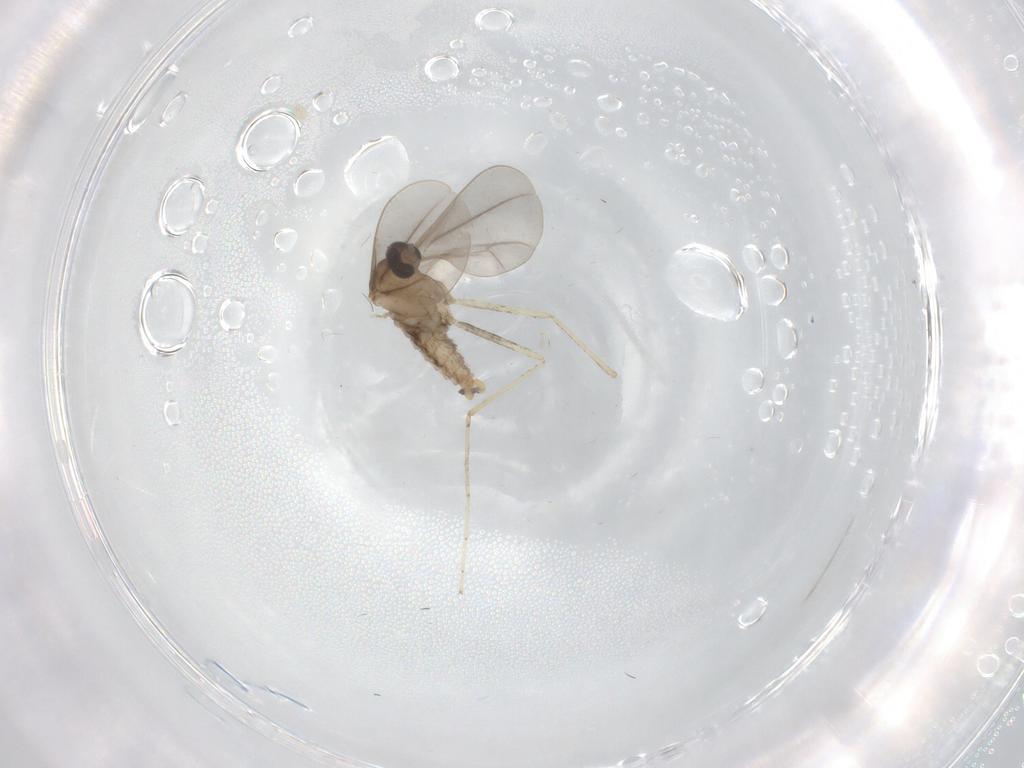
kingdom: Animalia
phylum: Arthropoda
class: Insecta
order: Diptera
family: Cecidomyiidae
